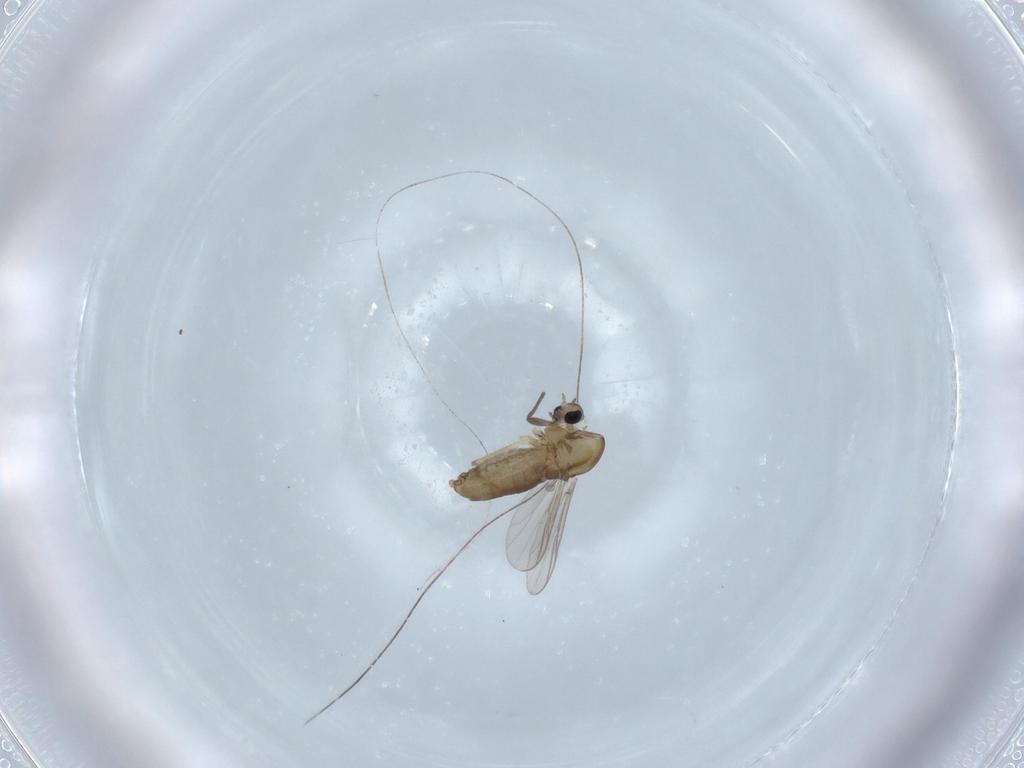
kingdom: Animalia
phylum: Arthropoda
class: Insecta
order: Diptera
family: Chironomidae
